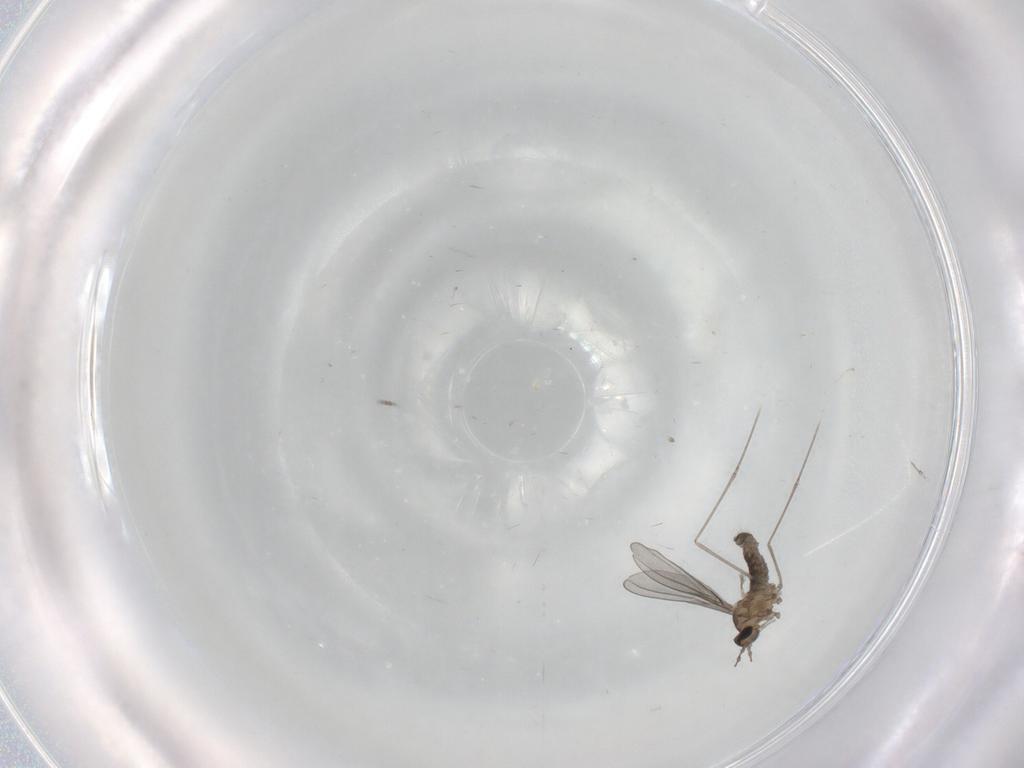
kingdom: Animalia
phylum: Arthropoda
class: Insecta
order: Diptera
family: Cecidomyiidae
